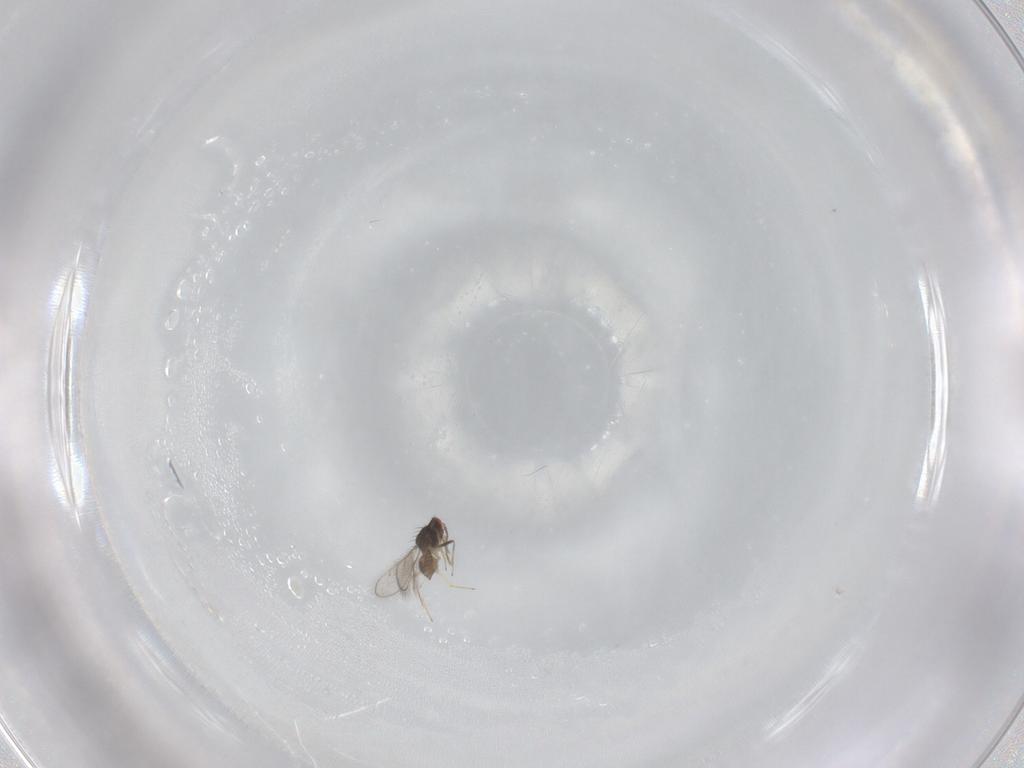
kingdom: Animalia
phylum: Arthropoda
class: Insecta
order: Hymenoptera
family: Eulophidae
